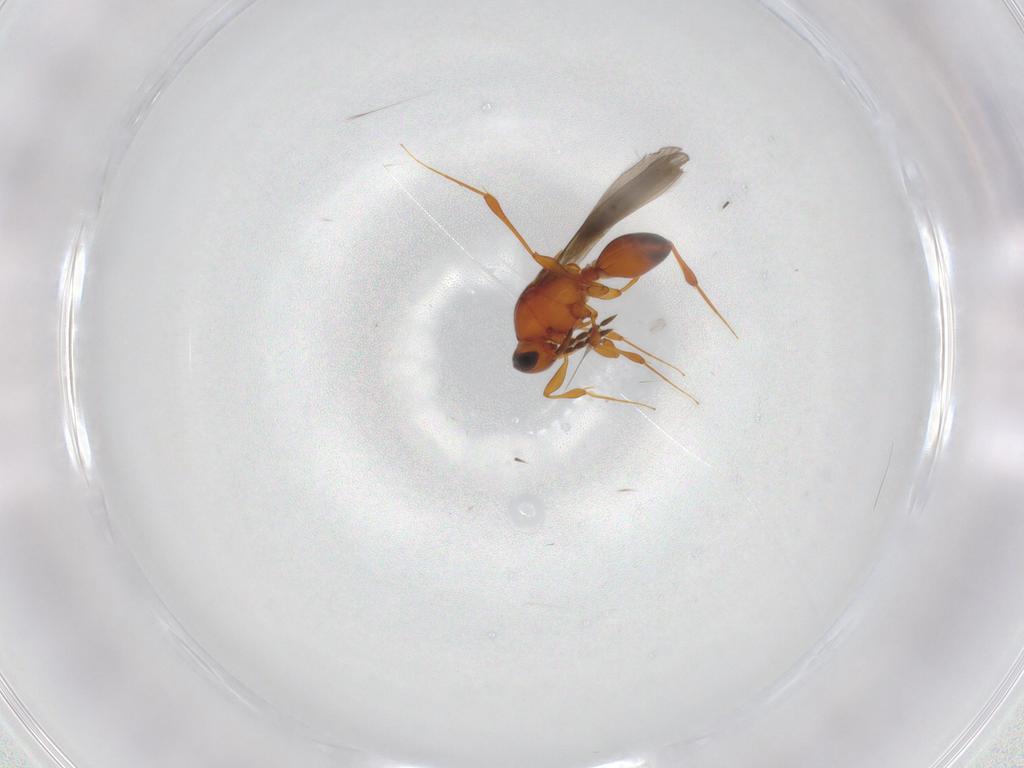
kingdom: Animalia
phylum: Arthropoda
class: Insecta
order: Hymenoptera
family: Platygastridae
